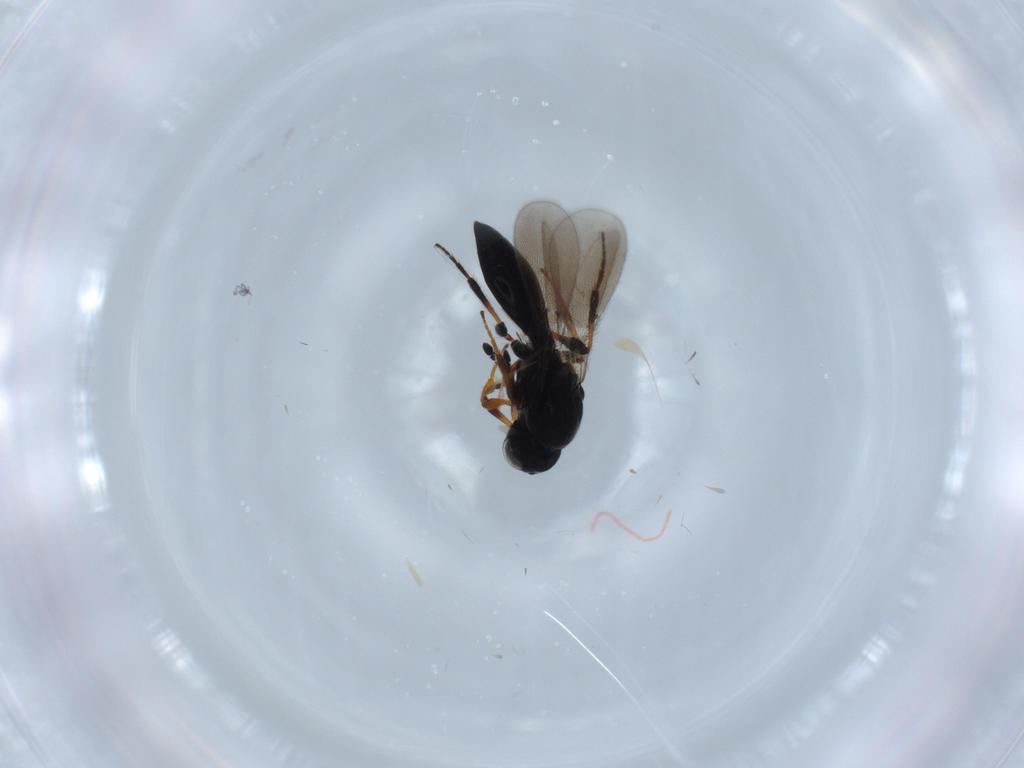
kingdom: Animalia
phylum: Arthropoda
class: Insecta
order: Hymenoptera
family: Platygastridae
